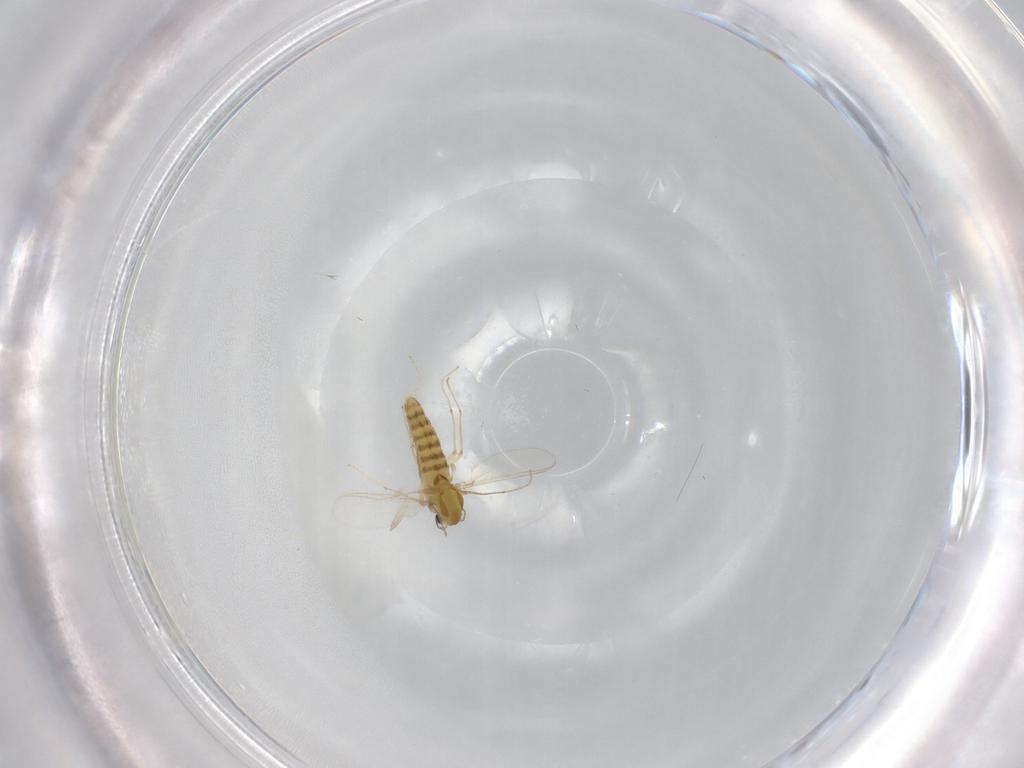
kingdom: Animalia
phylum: Arthropoda
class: Insecta
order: Diptera
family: Chironomidae
